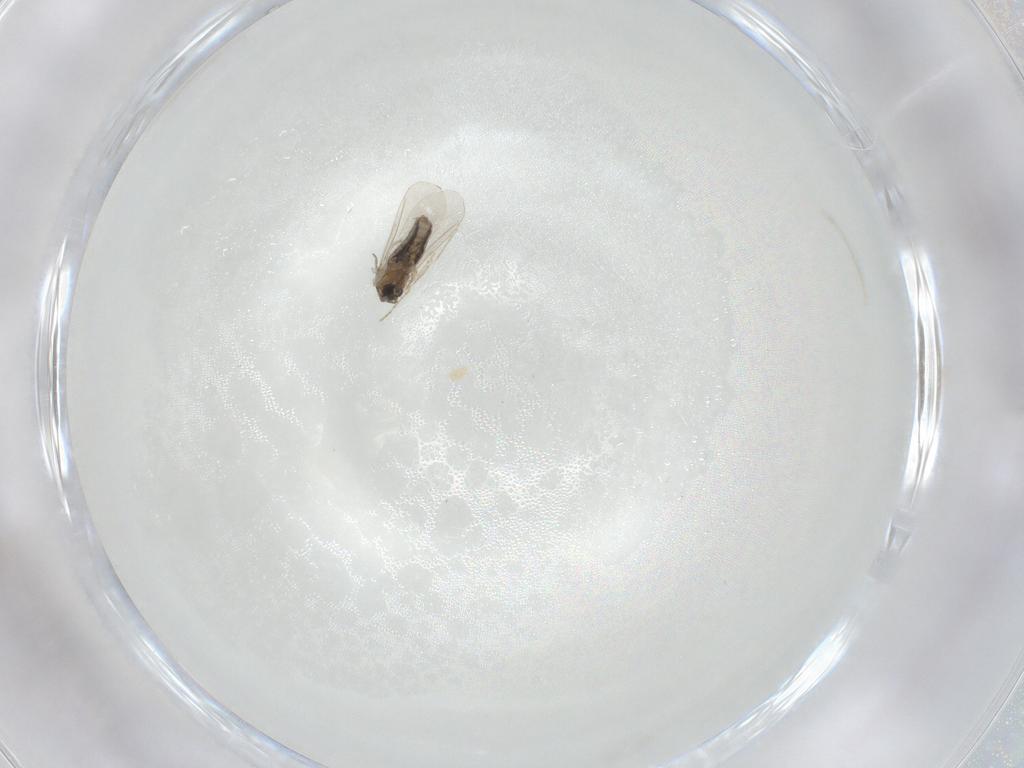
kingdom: Animalia
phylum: Arthropoda
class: Insecta
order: Diptera
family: Cecidomyiidae
